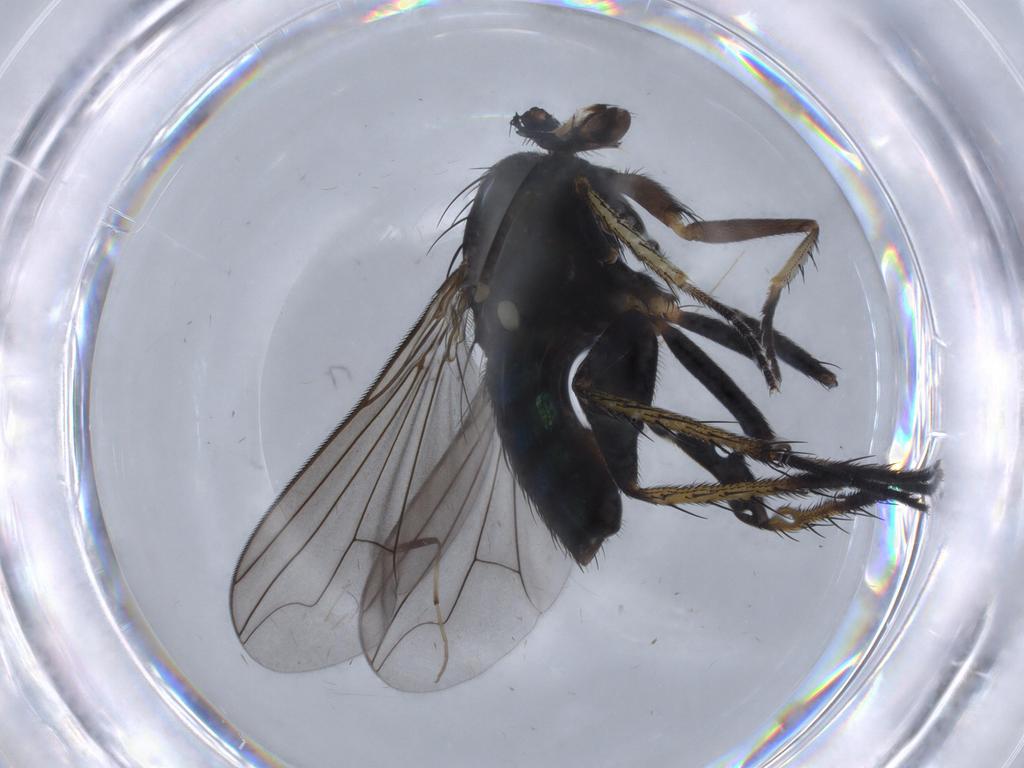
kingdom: Animalia
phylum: Arthropoda
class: Insecta
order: Diptera
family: Dolichopodidae
